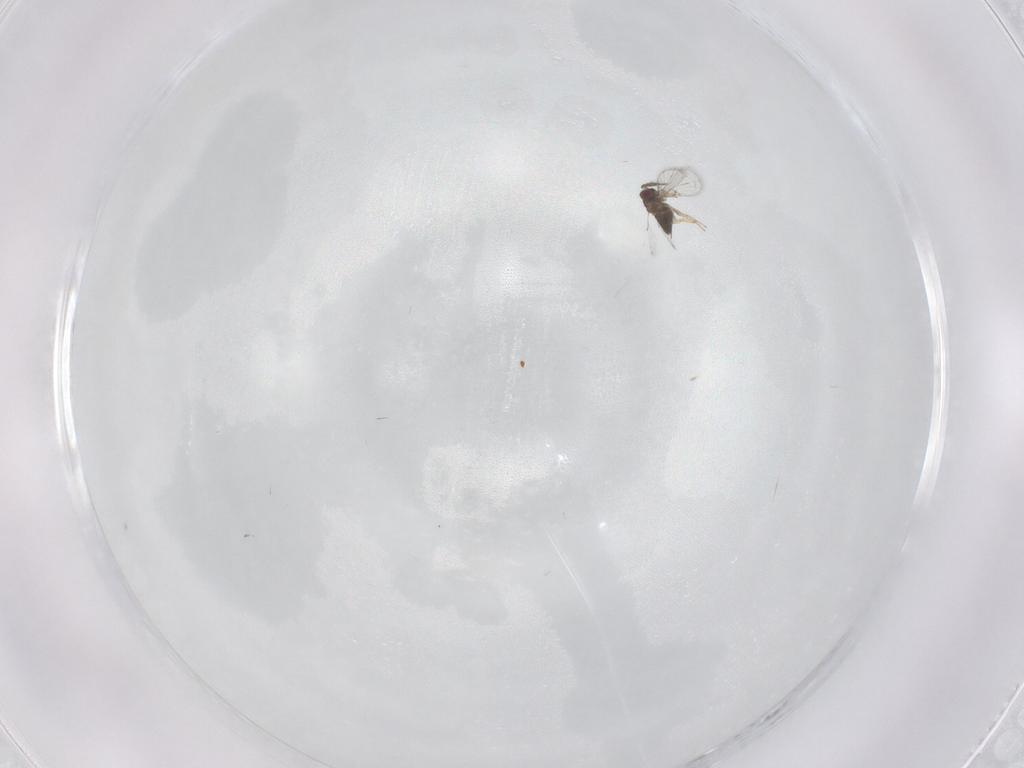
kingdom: Animalia
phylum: Arthropoda
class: Insecta
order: Hymenoptera
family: Trichogrammatidae
